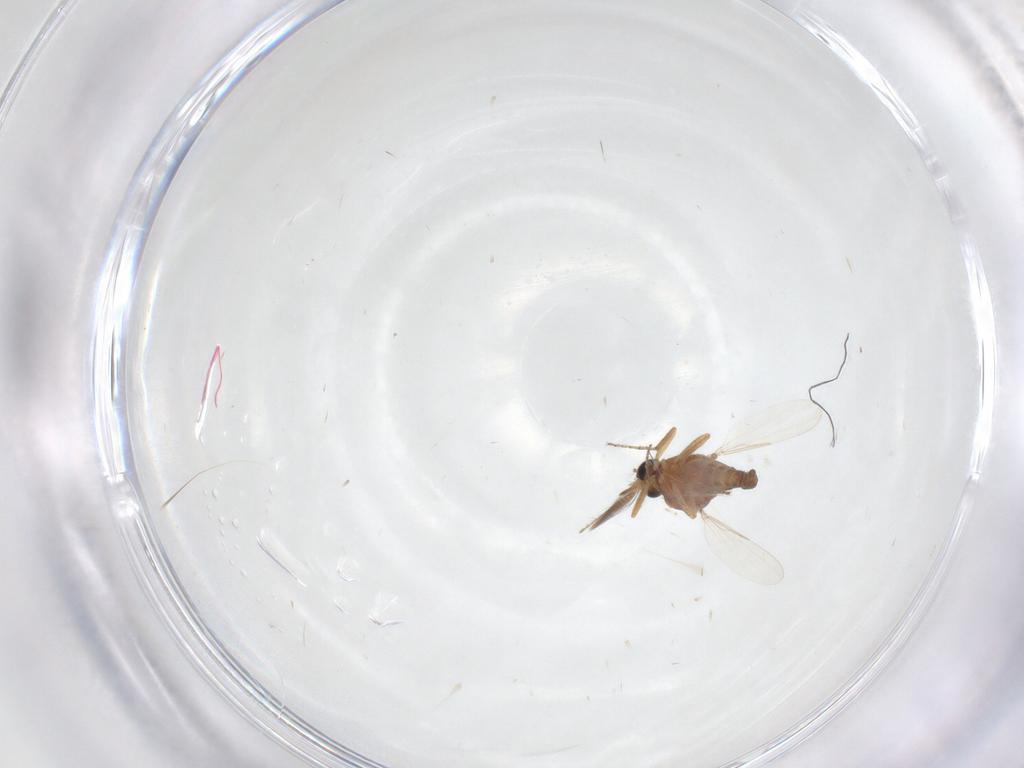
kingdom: Animalia
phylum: Arthropoda
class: Insecta
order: Diptera
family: Ceratopogonidae
